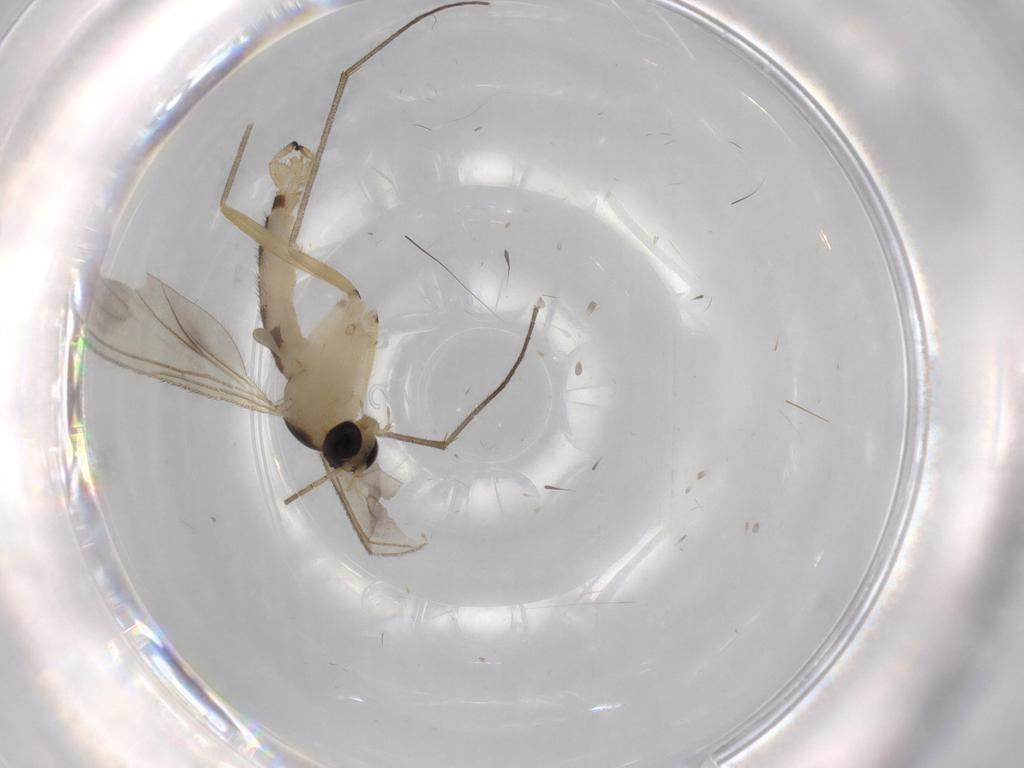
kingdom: Animalia
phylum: Arthropoda
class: Insecta
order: Diptera
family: Sciaridae
